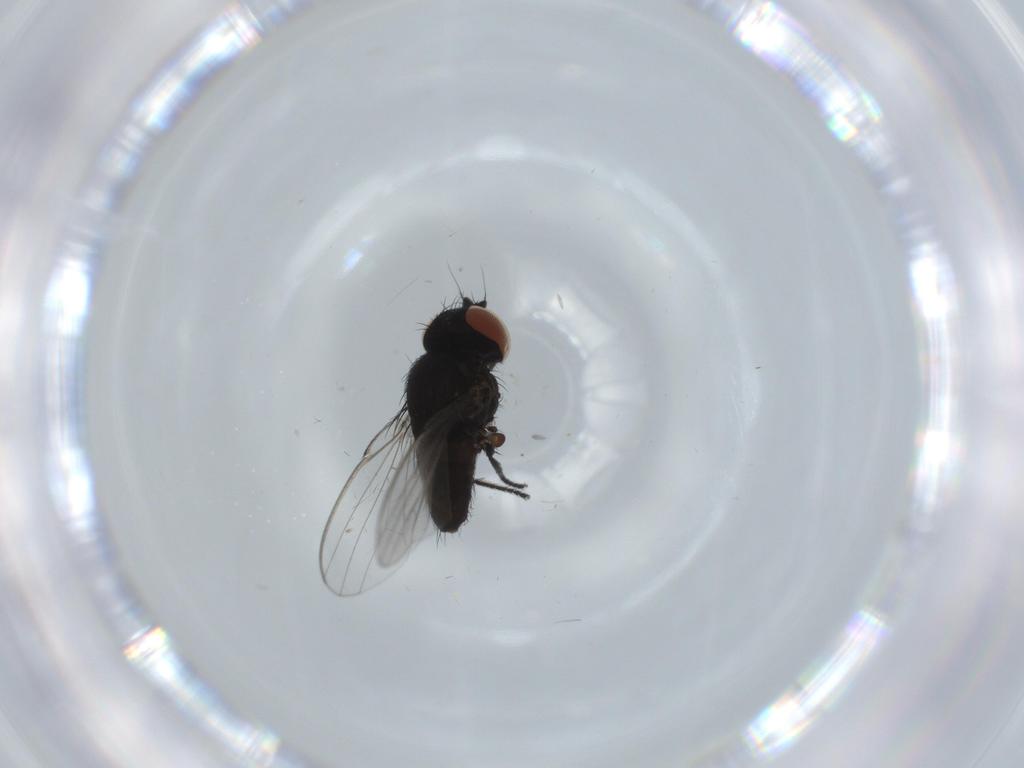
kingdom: Animalia
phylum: Arthropoda
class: Insecta
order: Diptera
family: Milichiidae
